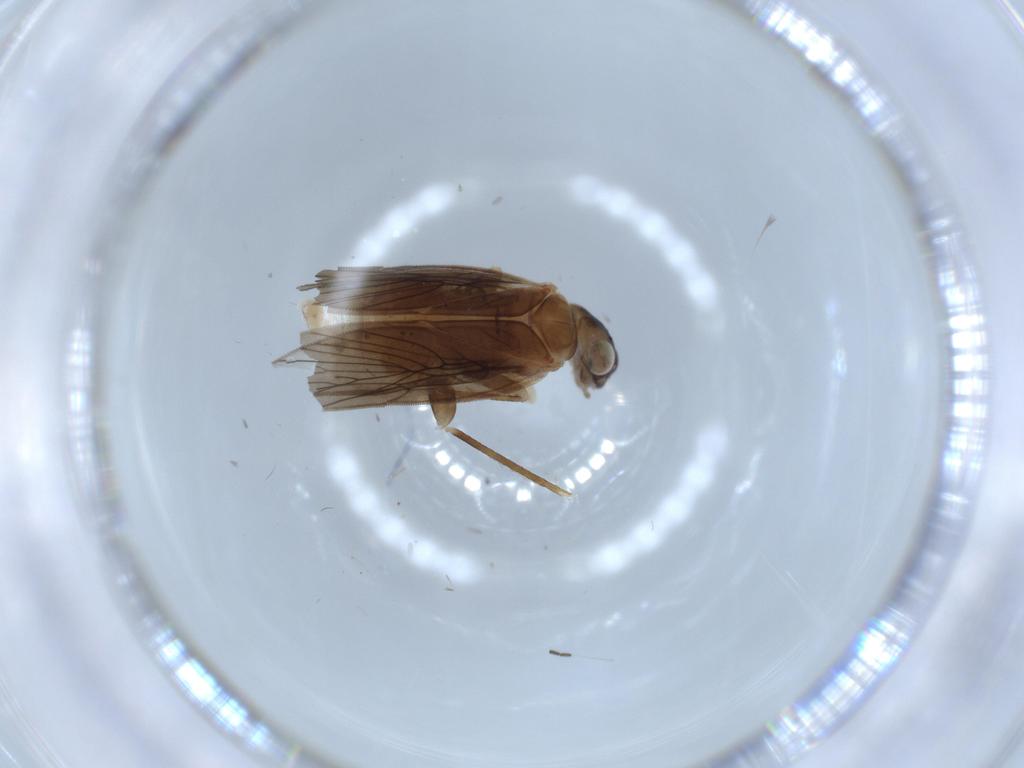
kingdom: Animalia
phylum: Arthropoda
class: Insecta
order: Psocodea
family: Lepidopsocidae
